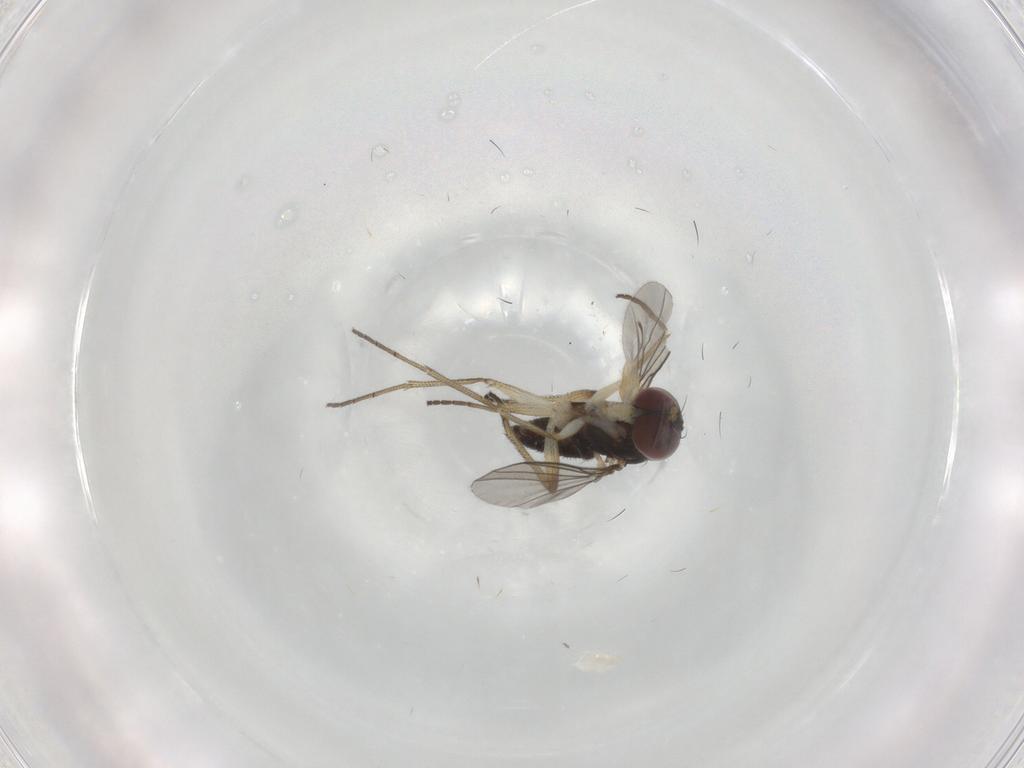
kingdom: Animalia
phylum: Arthropoda
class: Insecta
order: Diptera
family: Dolichopodidae
